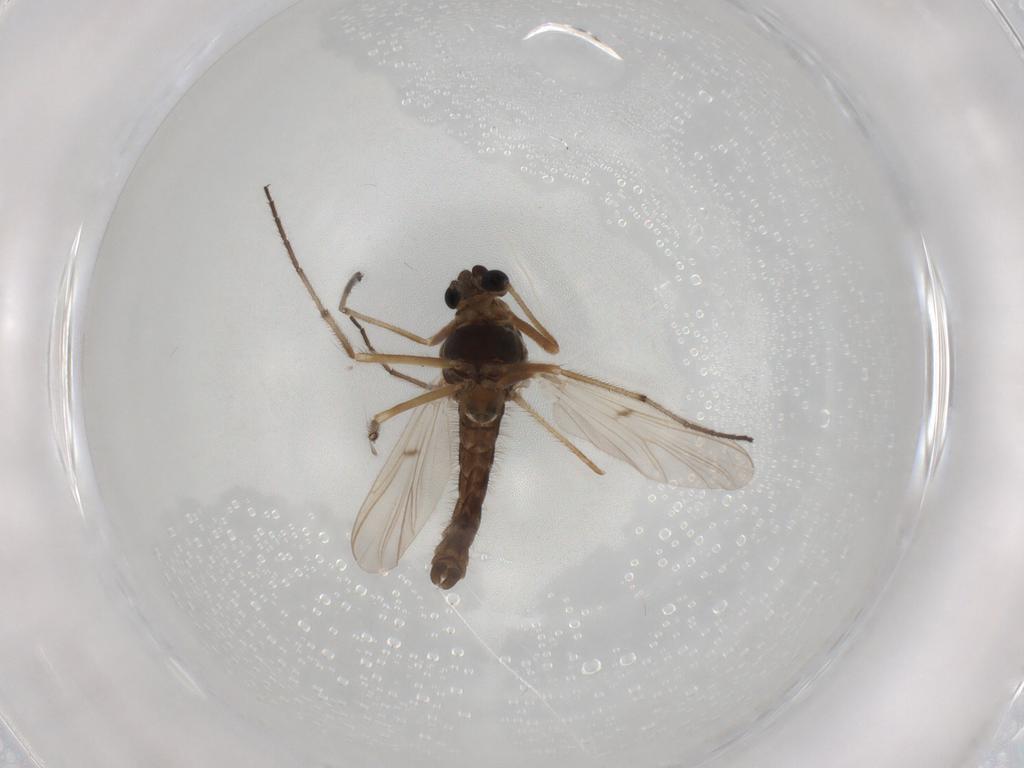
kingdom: Animalia
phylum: Arthropoda
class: Insecta
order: Diptera
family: Chironomidae
